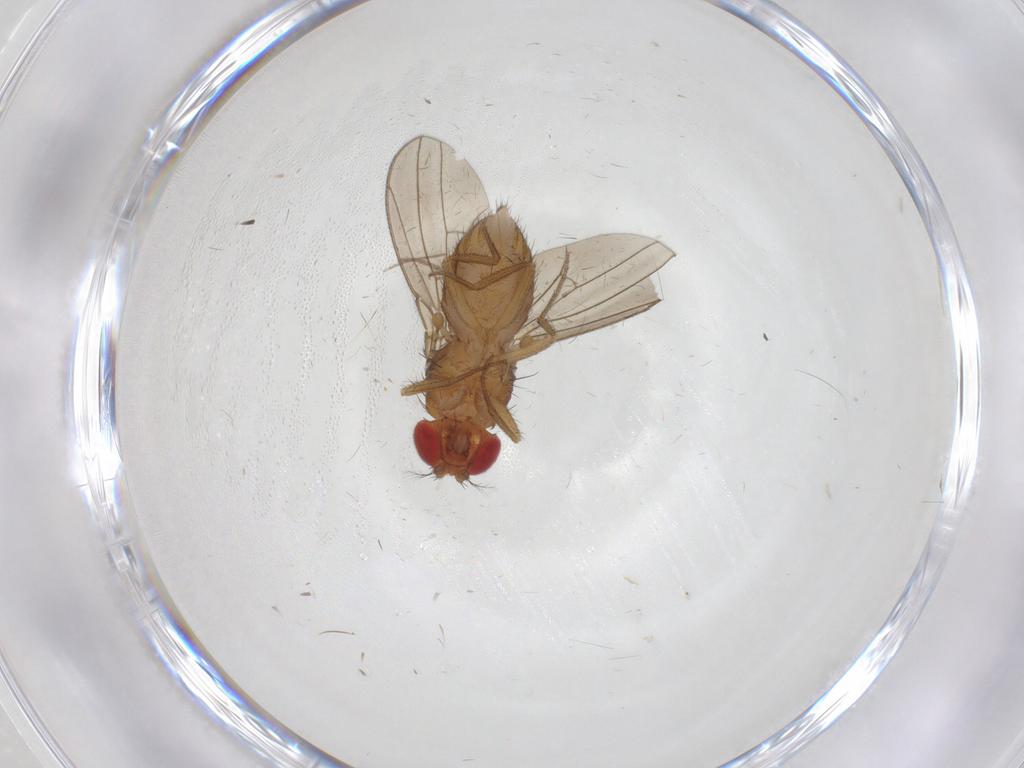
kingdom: Animalia
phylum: Arthropoda
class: Insecta
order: Diptera
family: Drosophilidae
